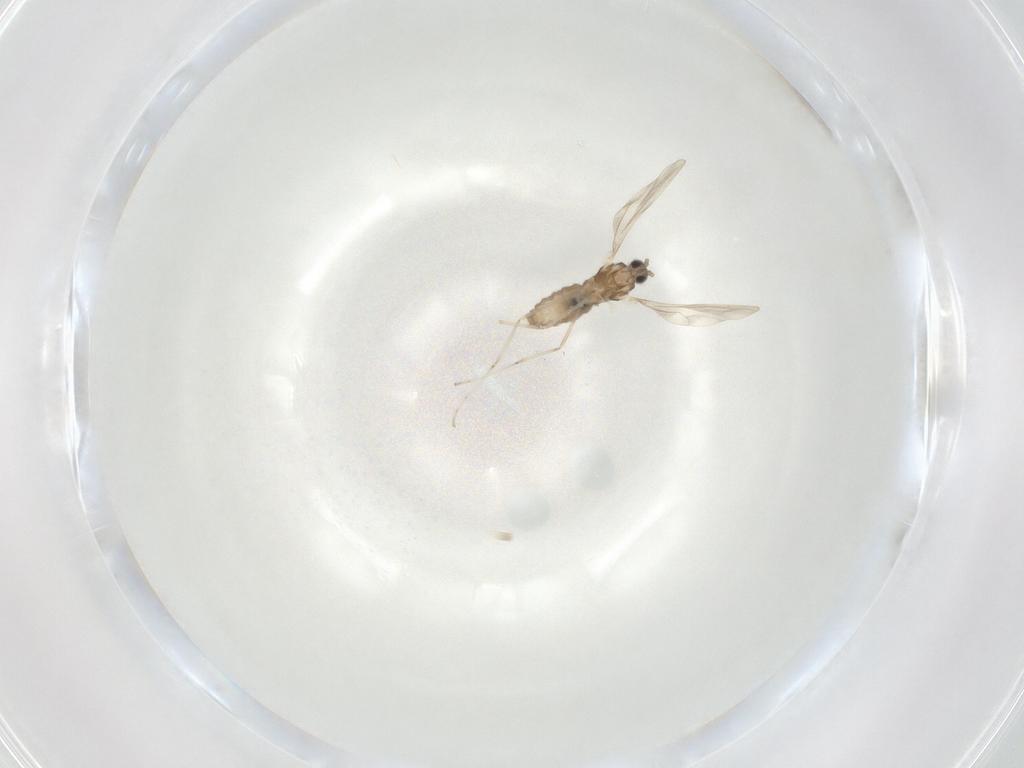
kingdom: Animalia
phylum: Arthropoda
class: Insecta
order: Diptera
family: Cecidomyiidae
